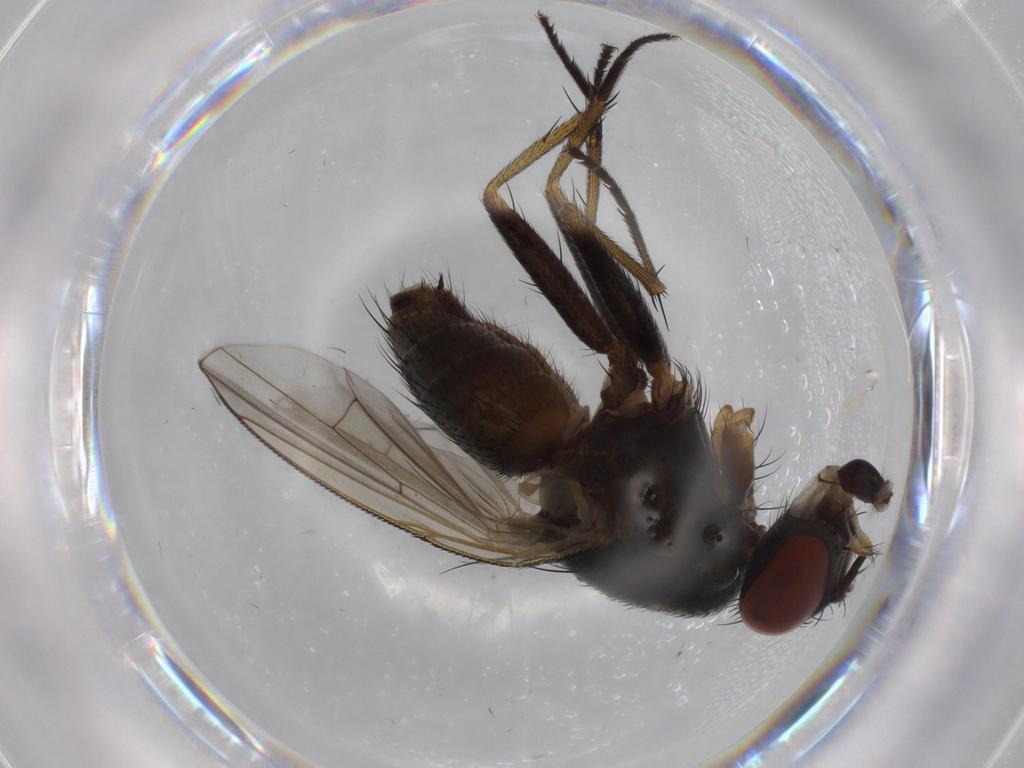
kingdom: Animalia
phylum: Arthropoda
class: Insecta
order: Diptera
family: Muscidae
